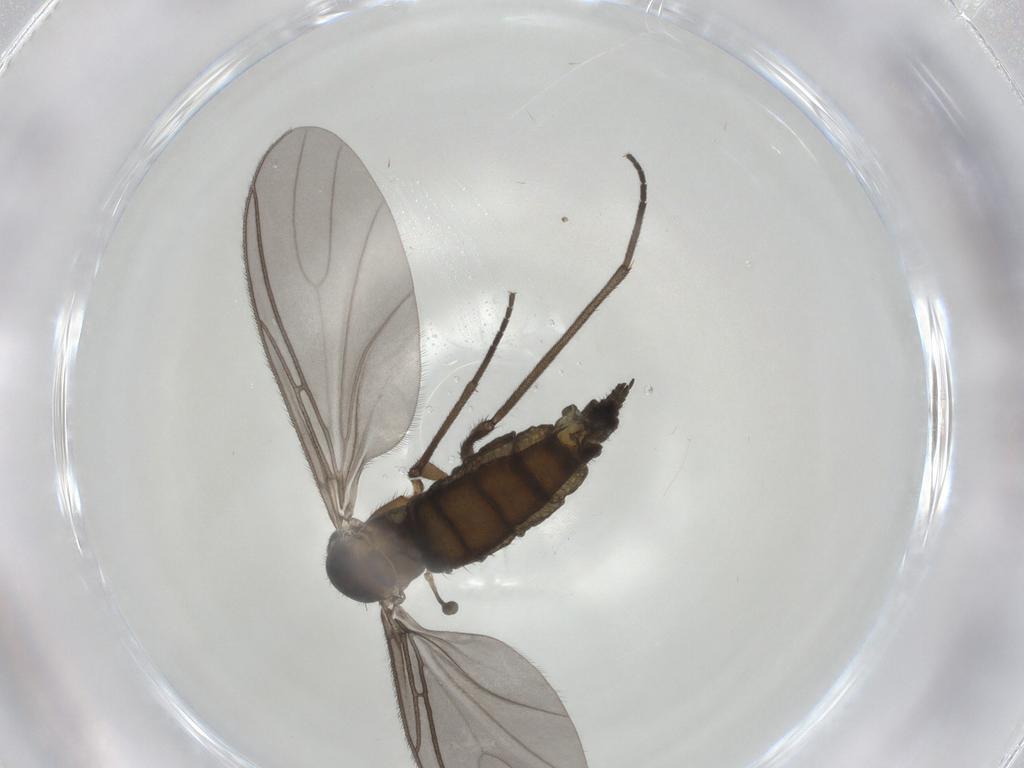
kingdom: Animalia
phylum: Arthropoda
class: Insecta
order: Diptera
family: Sciaridae
